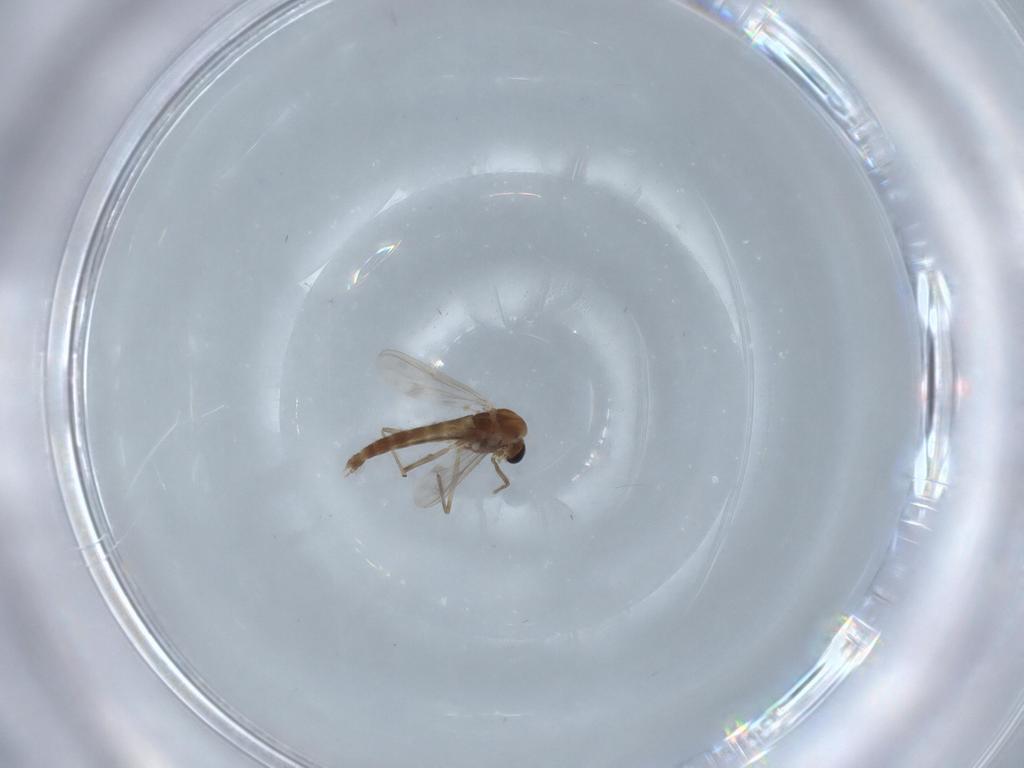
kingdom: Animalia
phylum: Arthropoda
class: Insecta
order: Diptera
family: Chironomidae
